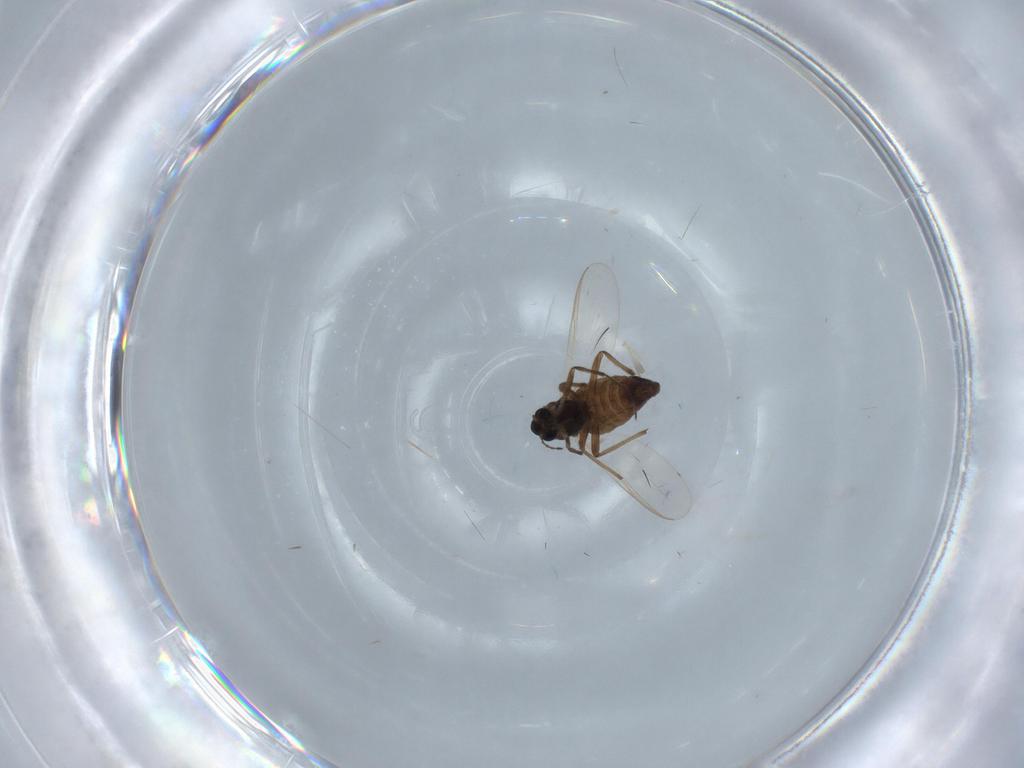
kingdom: Animalia
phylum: Arthropoda
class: Insecta
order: Diptera
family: Chironomidae
